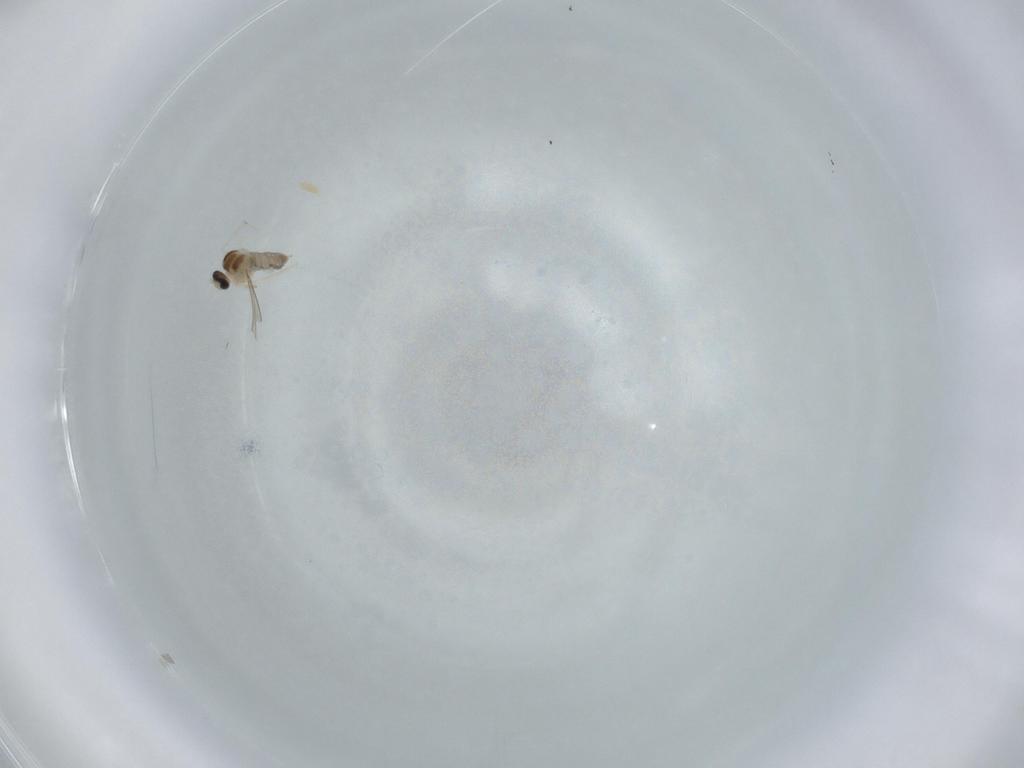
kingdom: Animalia
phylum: Arthropoda
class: Insecta
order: Diptera
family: Cecidomyiidae
